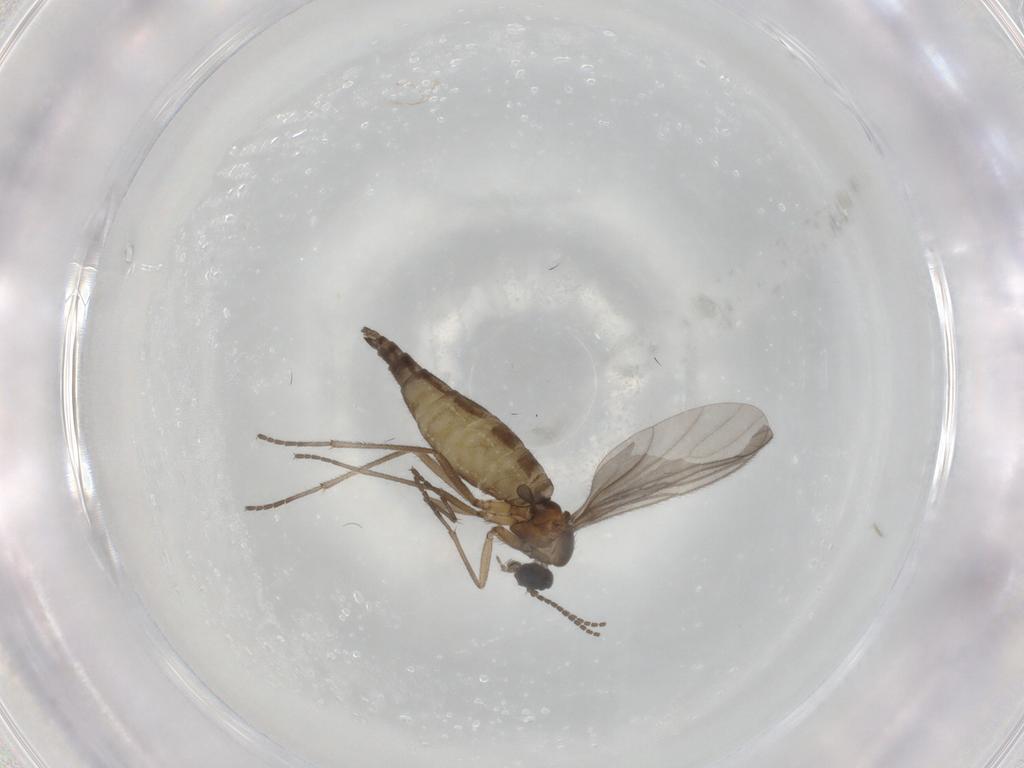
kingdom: Animalia
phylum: Arthropoda
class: Insecta
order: Diptera
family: Sciaridae
